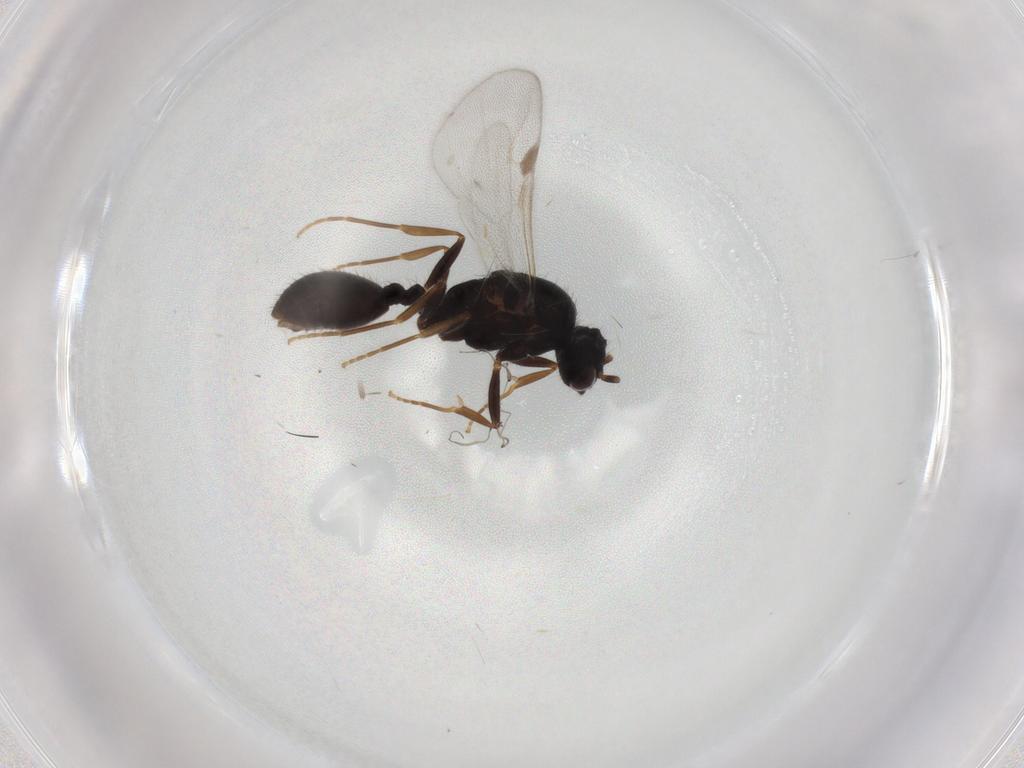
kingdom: Animalia
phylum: Arthropoda
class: Insecta
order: Hymenoptera
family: Formicidae
